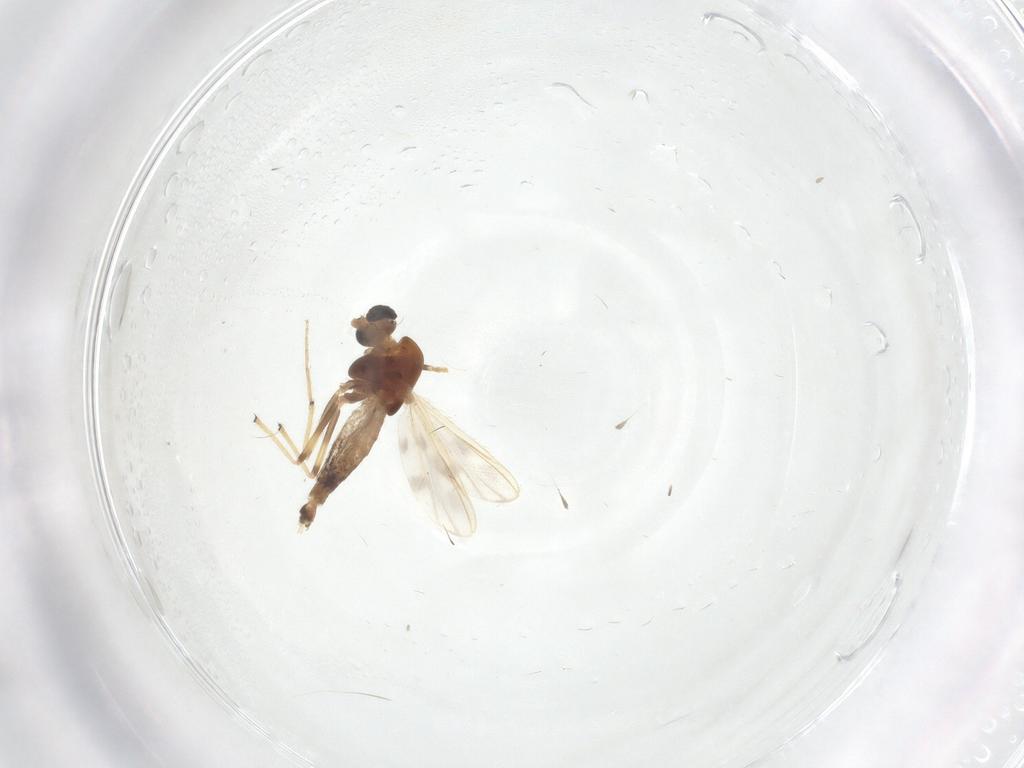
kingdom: Animalia
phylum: Arthropoda
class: Insecta
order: Diptera
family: Chironomidae
